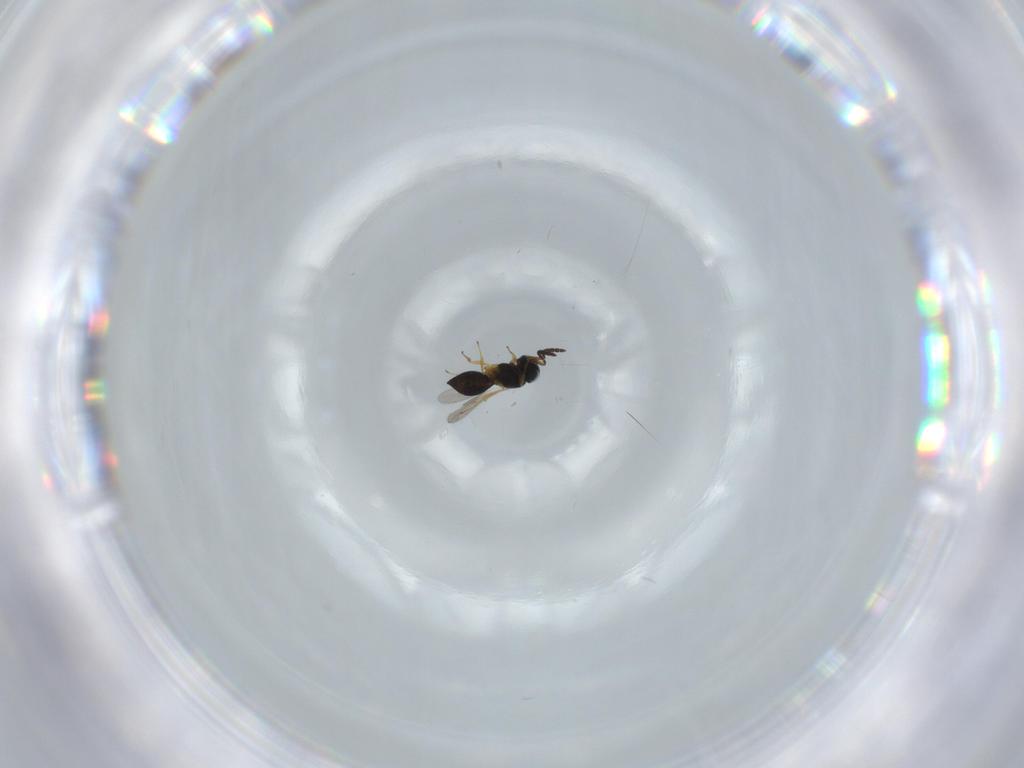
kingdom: Animalia
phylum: Arthropoda
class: Insecta
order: Hymenoptera
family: Scelionidae
